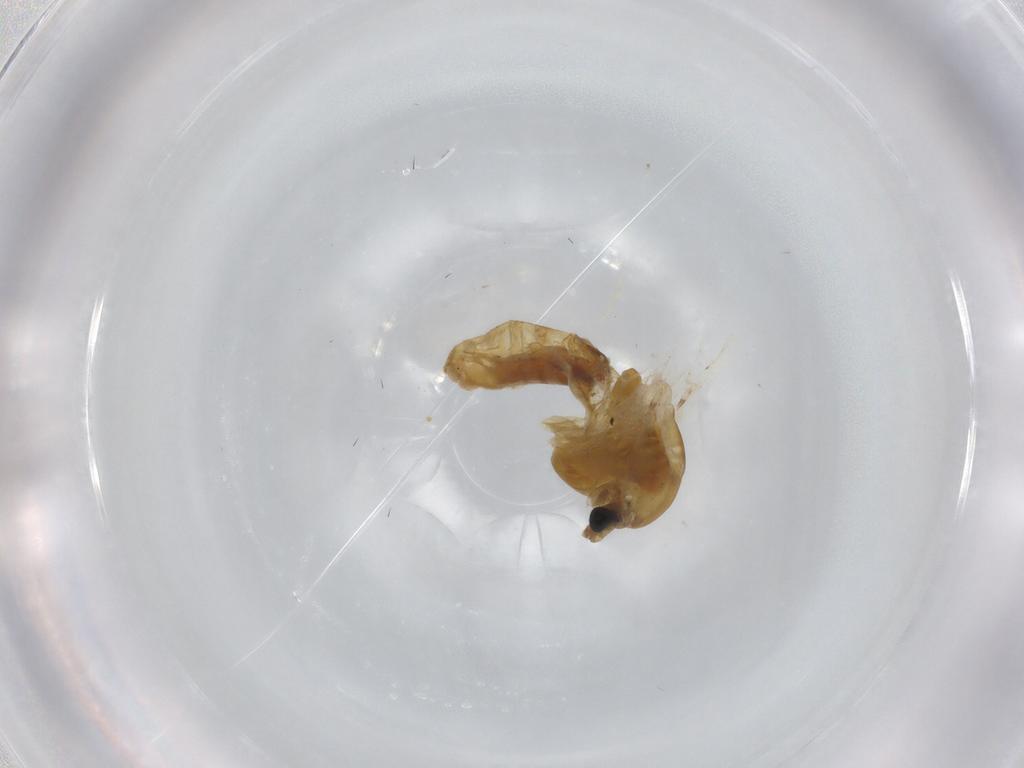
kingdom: Animalia
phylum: Arthropoda
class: Insecta
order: Diptera
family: Chironomidae
